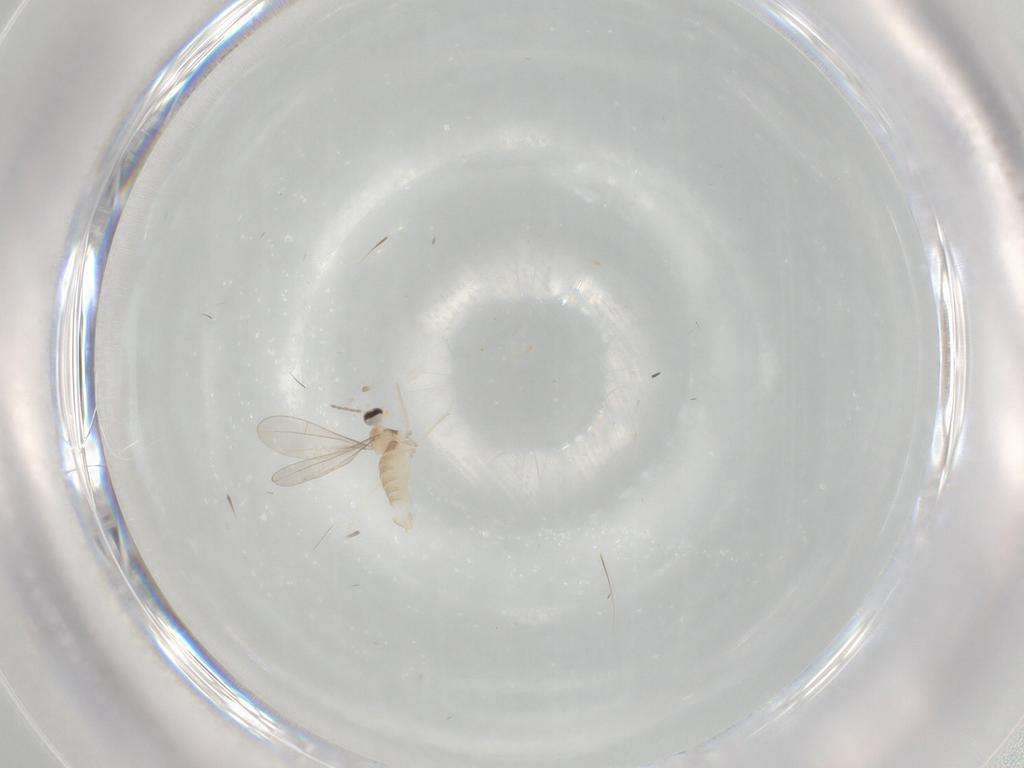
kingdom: Animalia
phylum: Arthropoda
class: Insecta
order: Diptera
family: Cecidomyiidae
